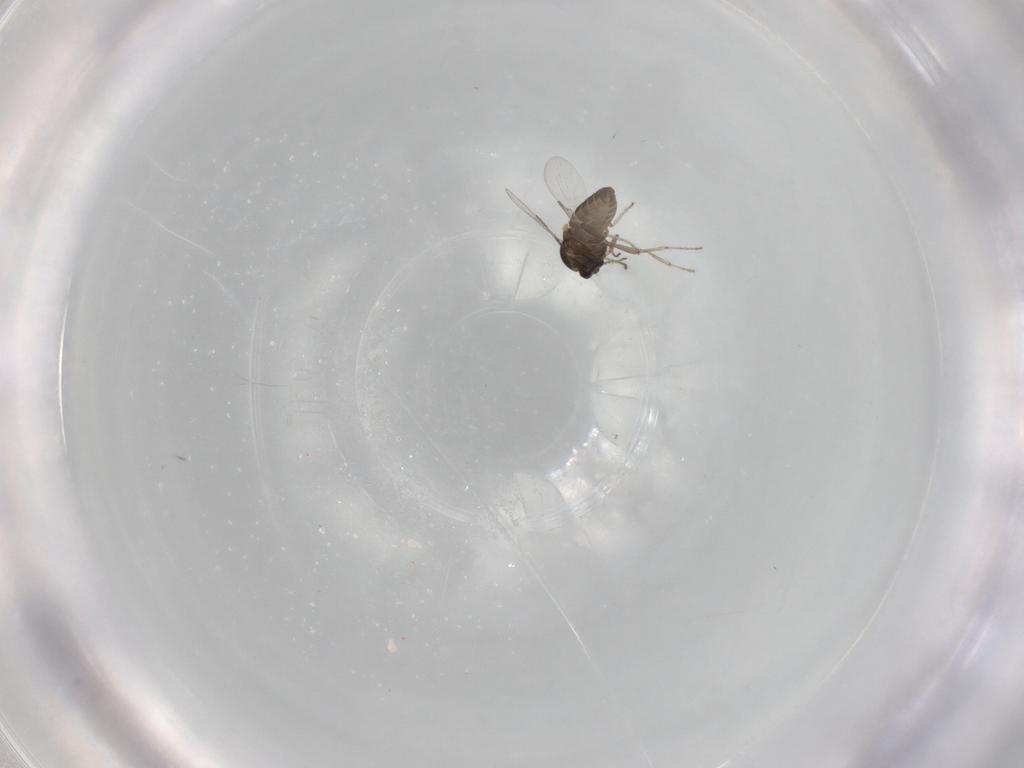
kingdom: Animalia
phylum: Arthropoda
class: Insecta
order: Diptera
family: Ceratopogonidae
